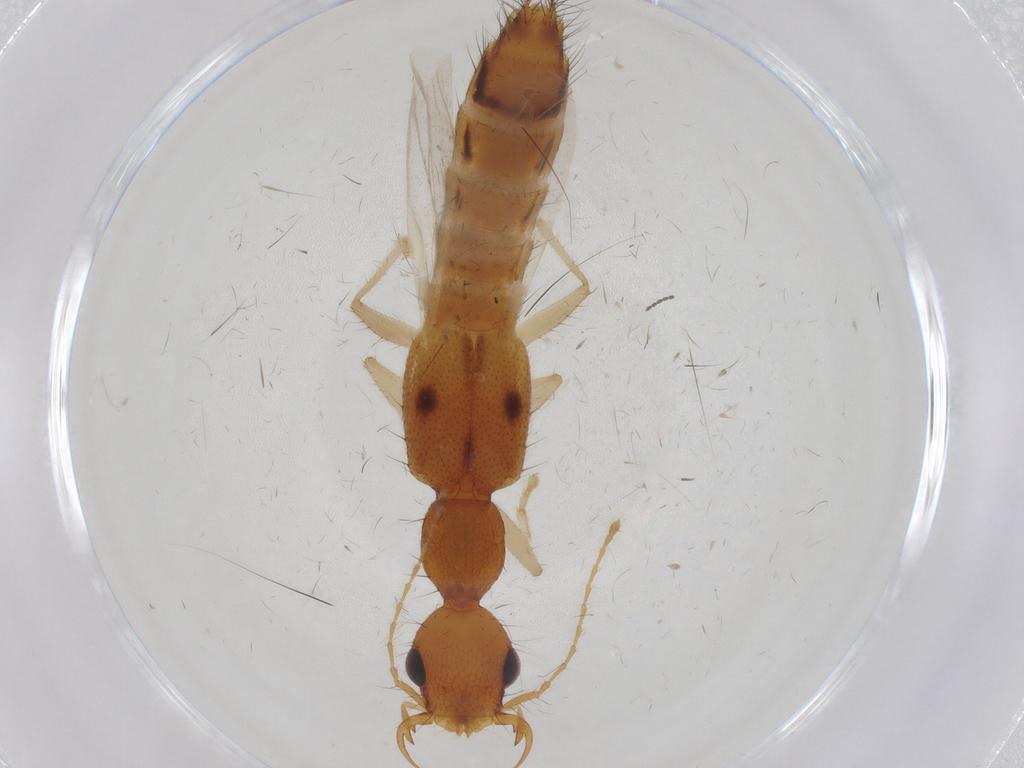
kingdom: Animalia
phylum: Arthropoda
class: Insecta
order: Coleoptera
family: Staphylinidae
